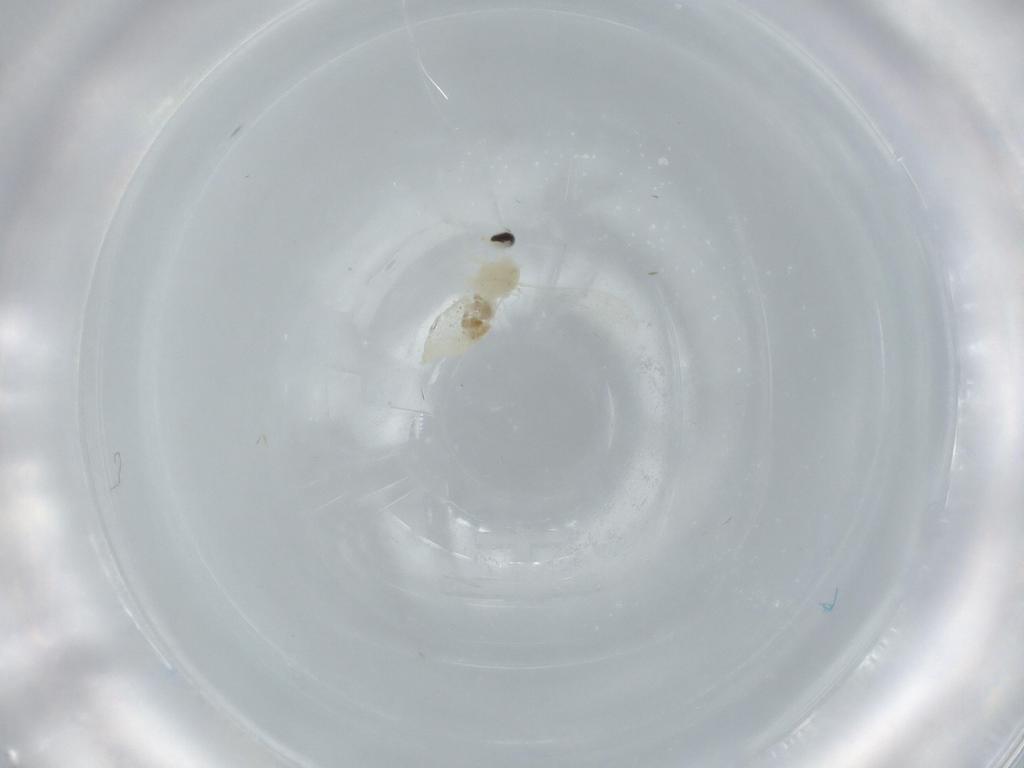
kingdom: Animalia
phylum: Arthropoda
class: Insecta
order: Diptera
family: Cecidomyiidae
